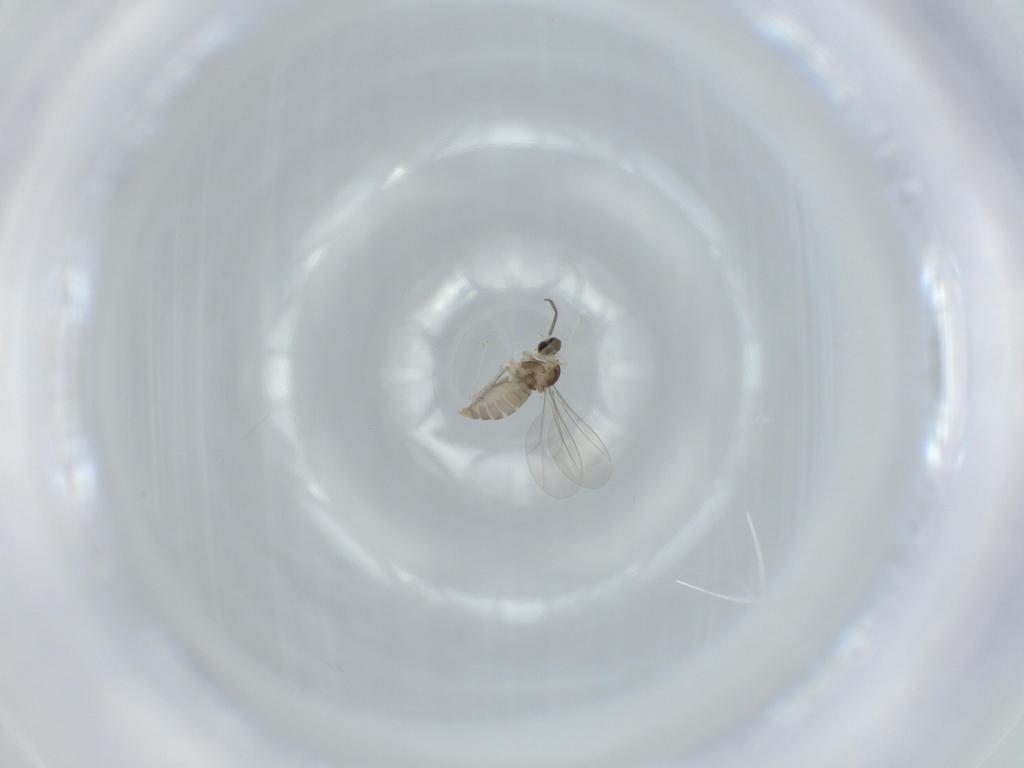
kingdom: Animalia
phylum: Arthropoda
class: Insecta
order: Diptera
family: Cecidomyiidae
